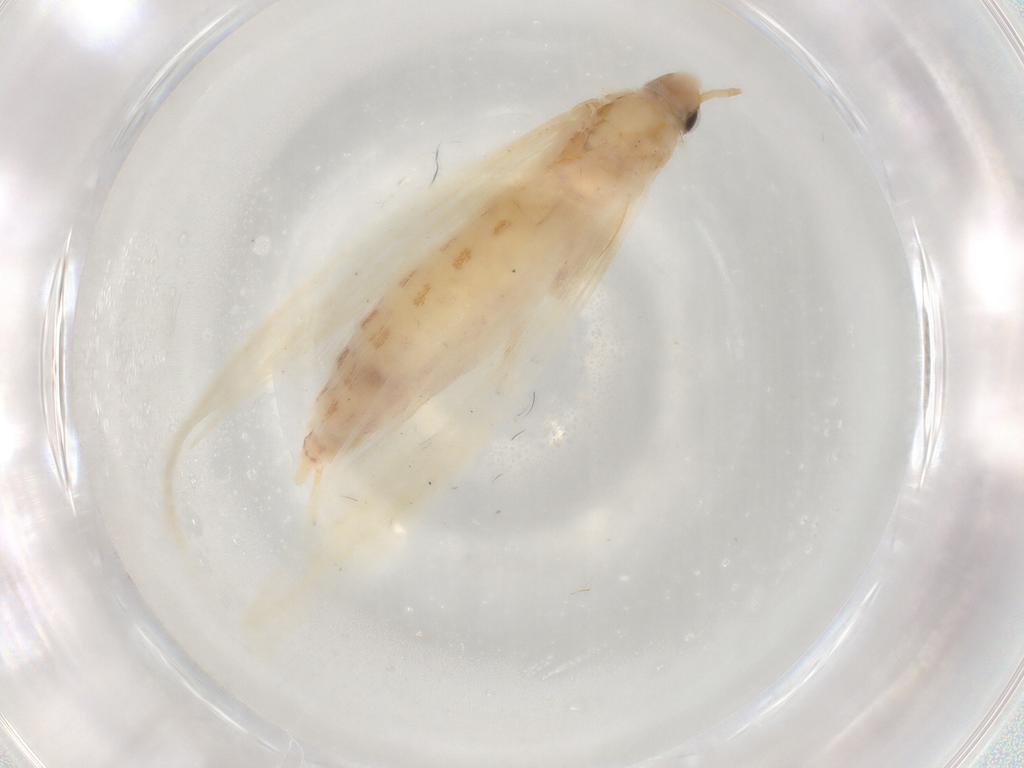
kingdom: Animalia
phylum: Arthropoda
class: Insecta
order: Lepidoptera
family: Coleophoridae
